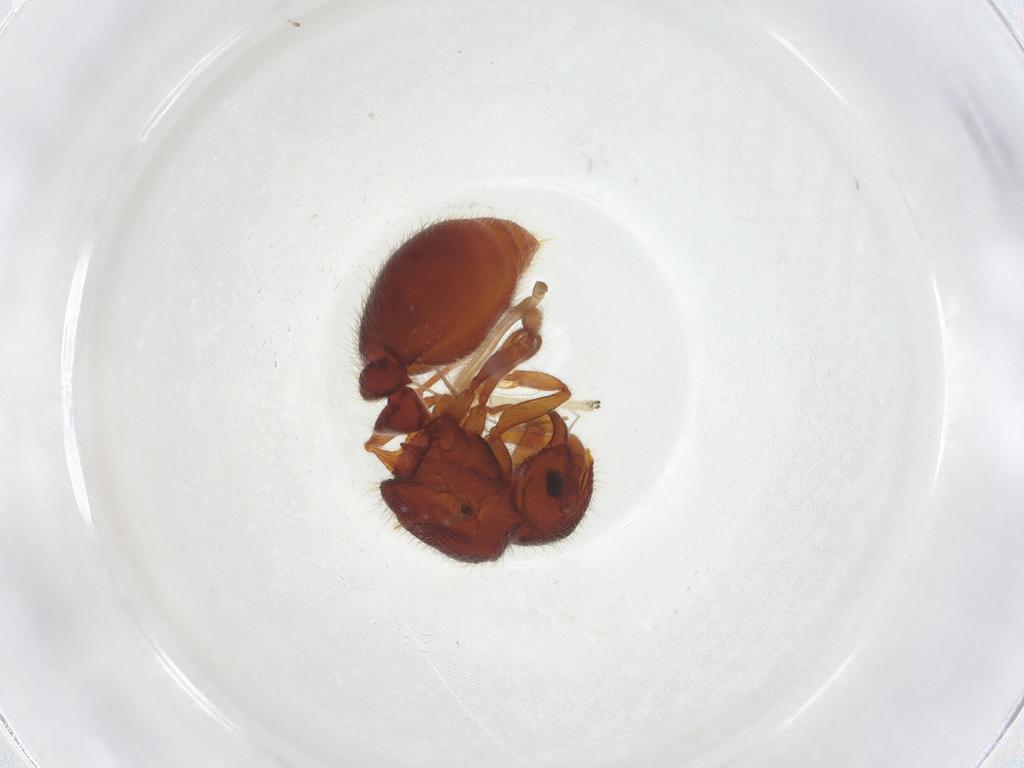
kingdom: Animalia
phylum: Arthropoda
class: Insecta
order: Hymenoptera
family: Formicidae
